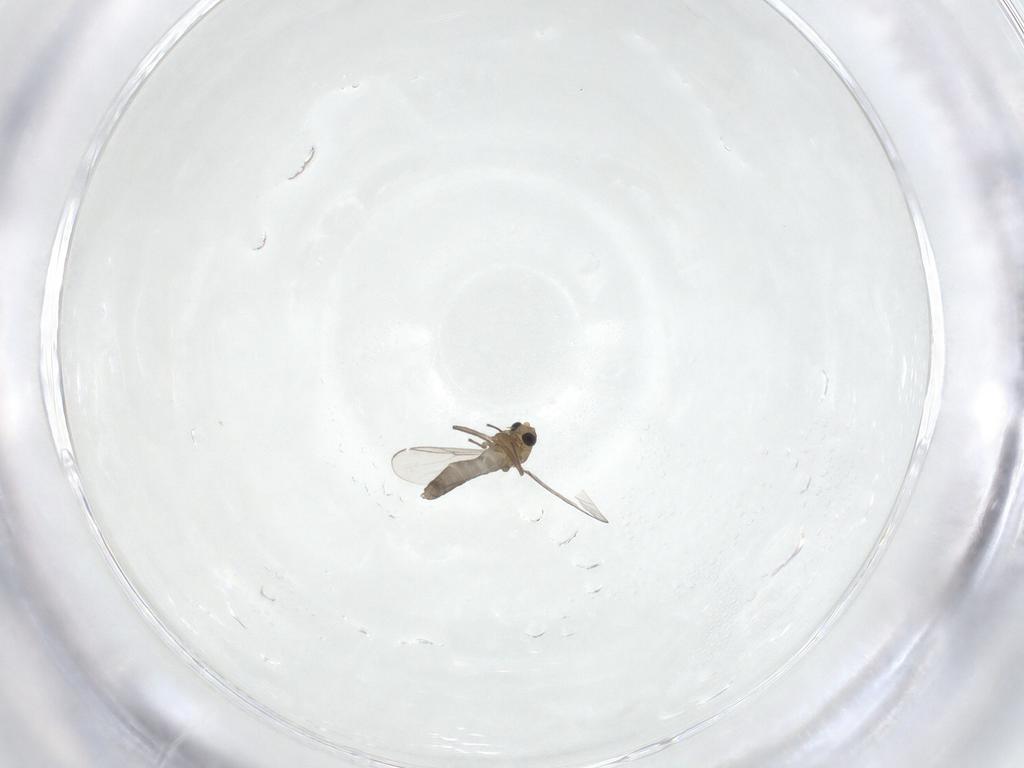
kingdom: Animalia
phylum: Arthropoda
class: Insecta
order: Diptera
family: Chironomidae
